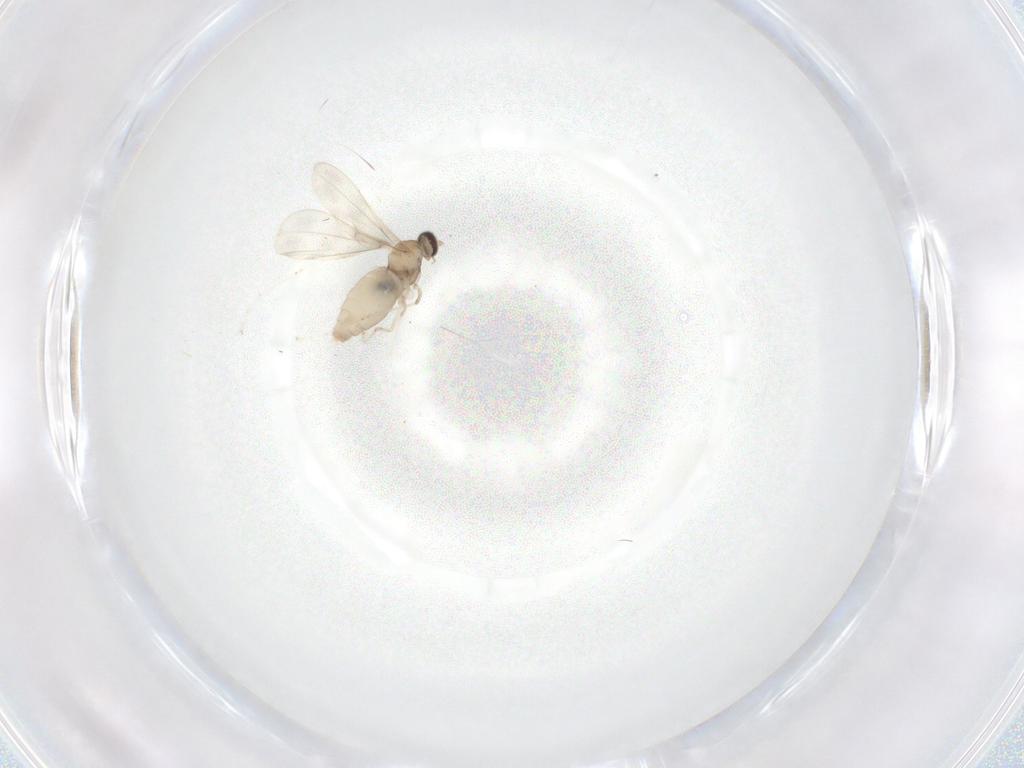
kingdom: Animalia
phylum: Arthropoda
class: Insecta
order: Diptera
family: Cecidomyiidae
